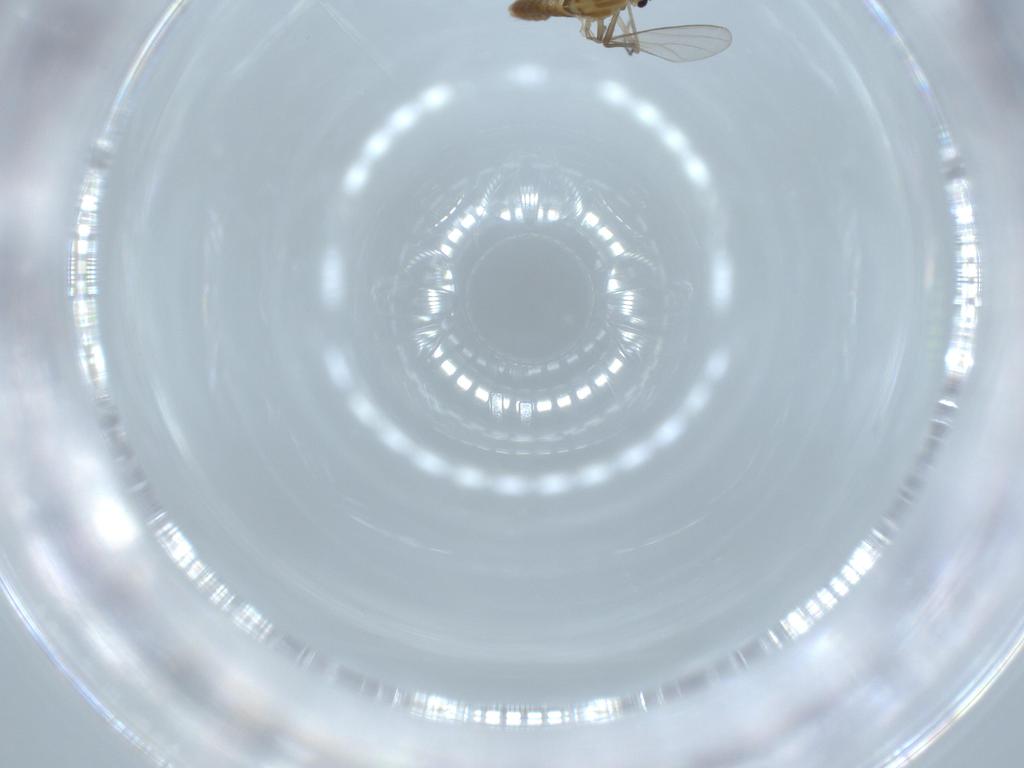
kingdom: Animalia
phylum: Arthropoda
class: Insecta
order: Diptera
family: Chironomidae
